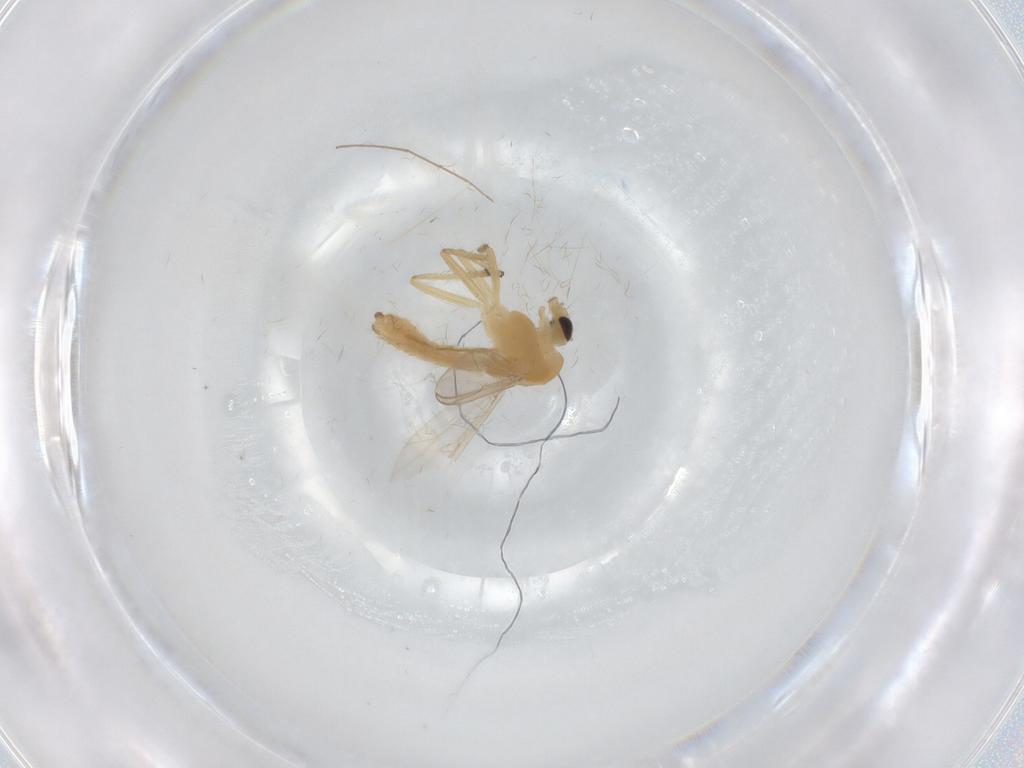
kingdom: Animalia
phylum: Arthropoda
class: Insecta
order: Diptera
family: Chironomidae
